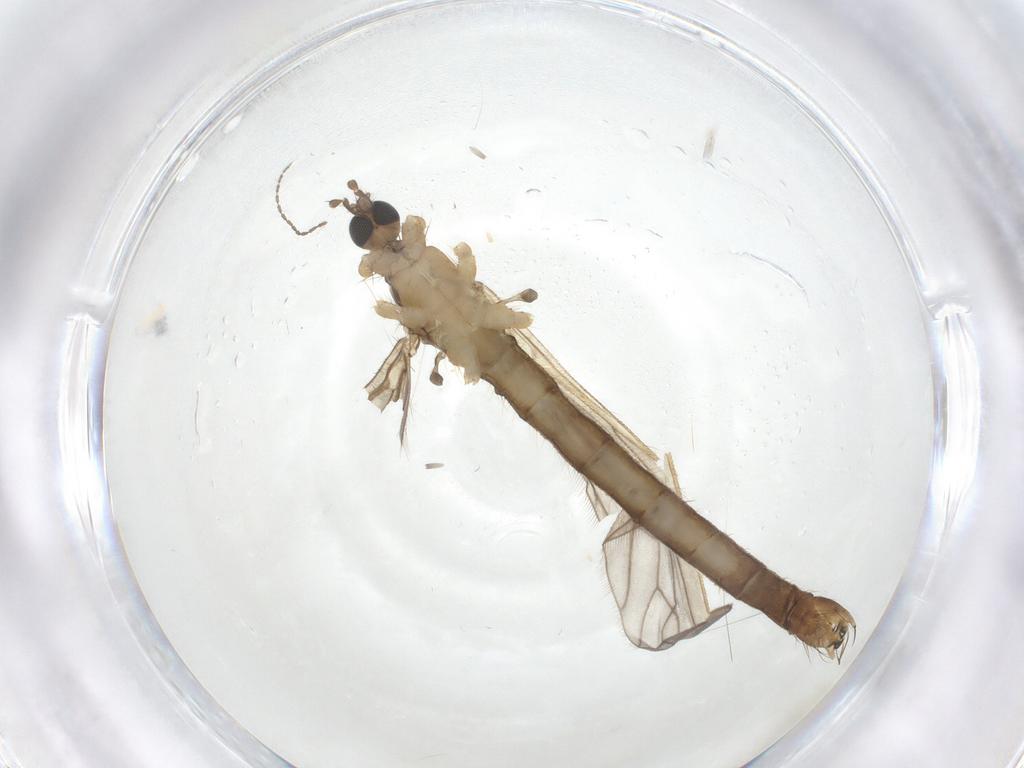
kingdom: Animalia
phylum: Arthropoda
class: Insecta
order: Diptera
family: Limoniidae
